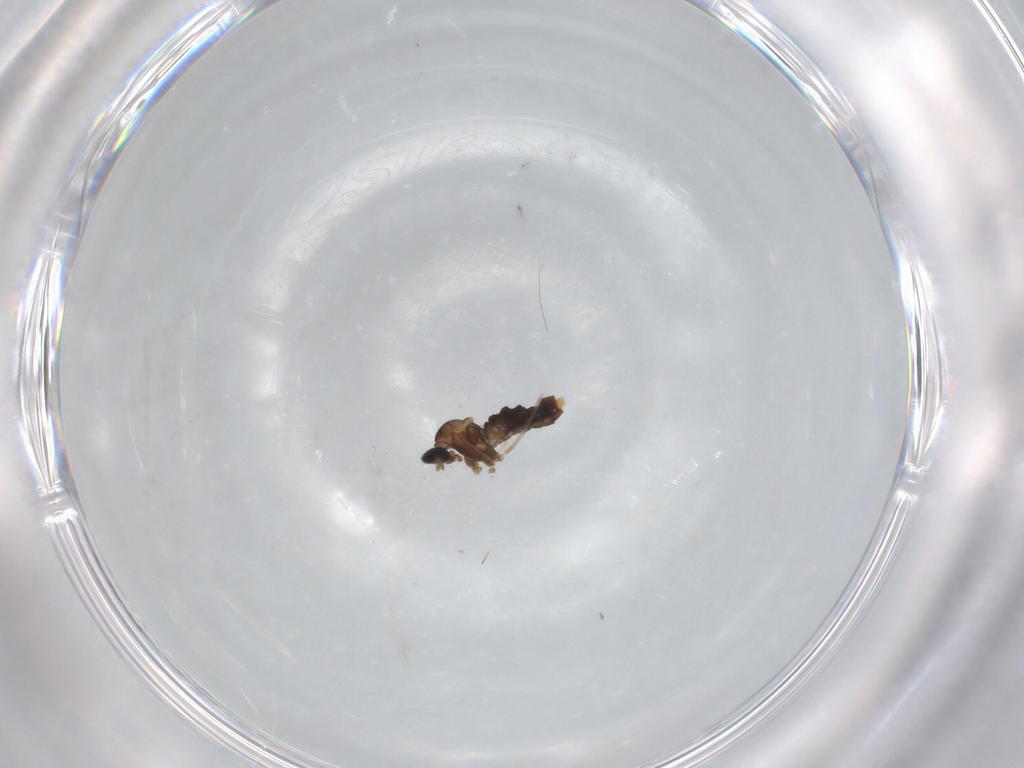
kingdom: Animalia
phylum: Arthropoda
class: Insecta
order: Diptera
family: Cecidomyiidae
